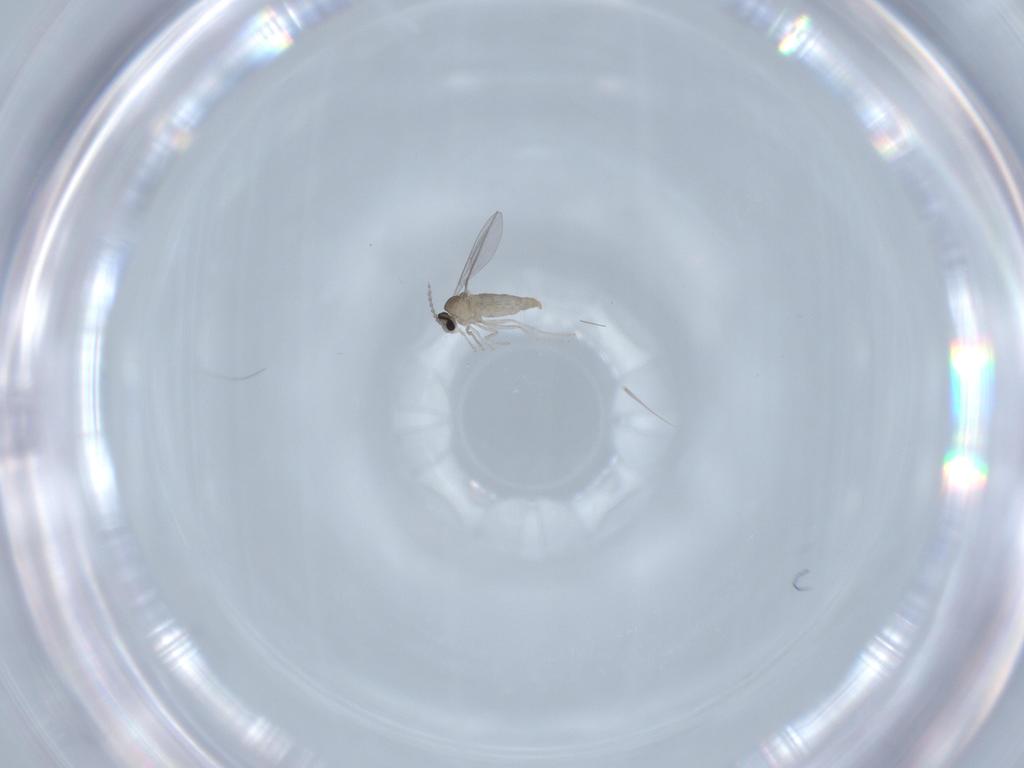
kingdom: Animalia
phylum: Arthropoda
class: Insecta
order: Diptera
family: Cecidomyiidae
